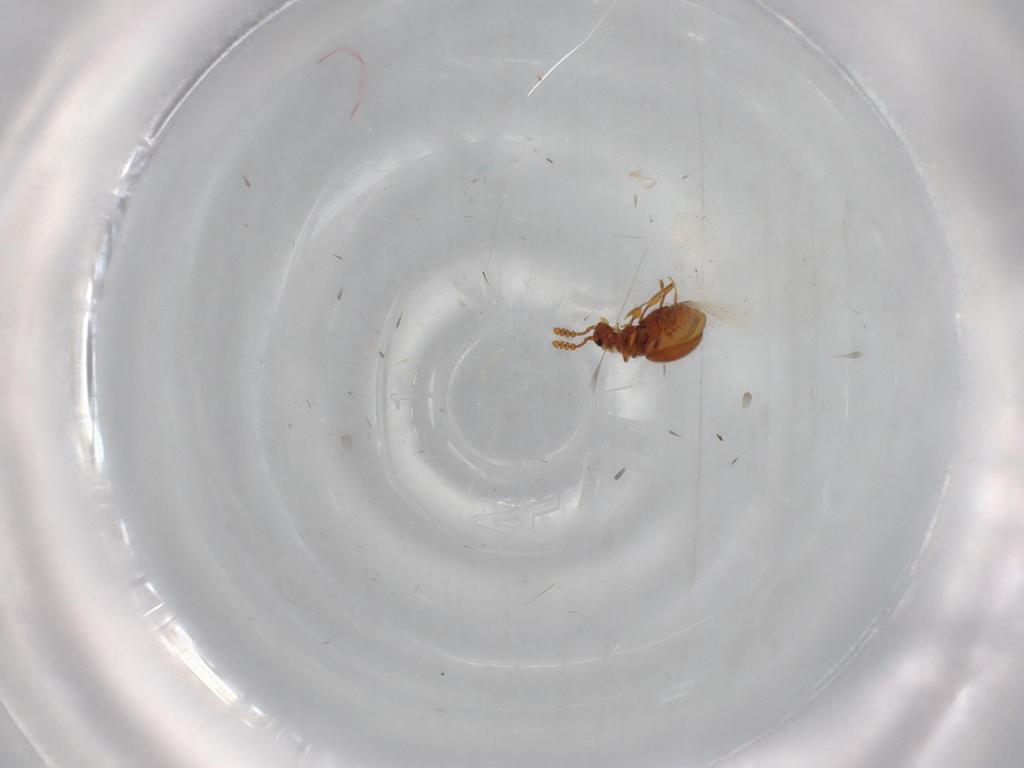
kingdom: Animalia
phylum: Arthropoda
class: Insecta
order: Coleoptera
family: Staphylinidae
